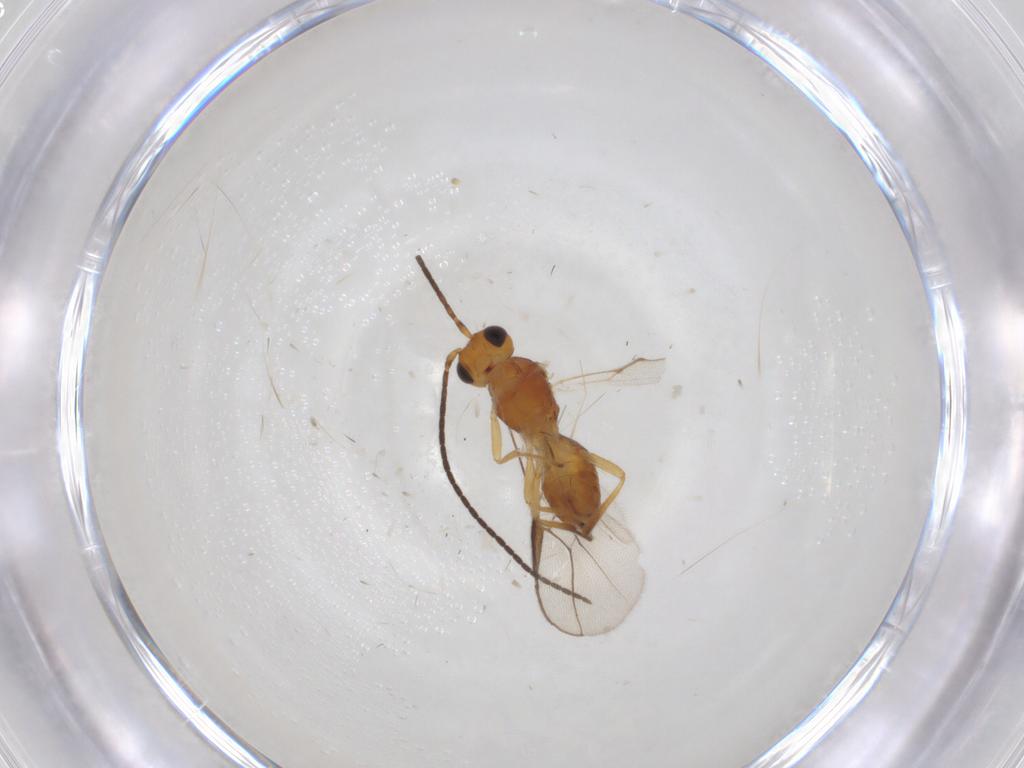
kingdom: Animalia
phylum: Arthropoda
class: Insecta
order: Hymenoptera
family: Braconidae
